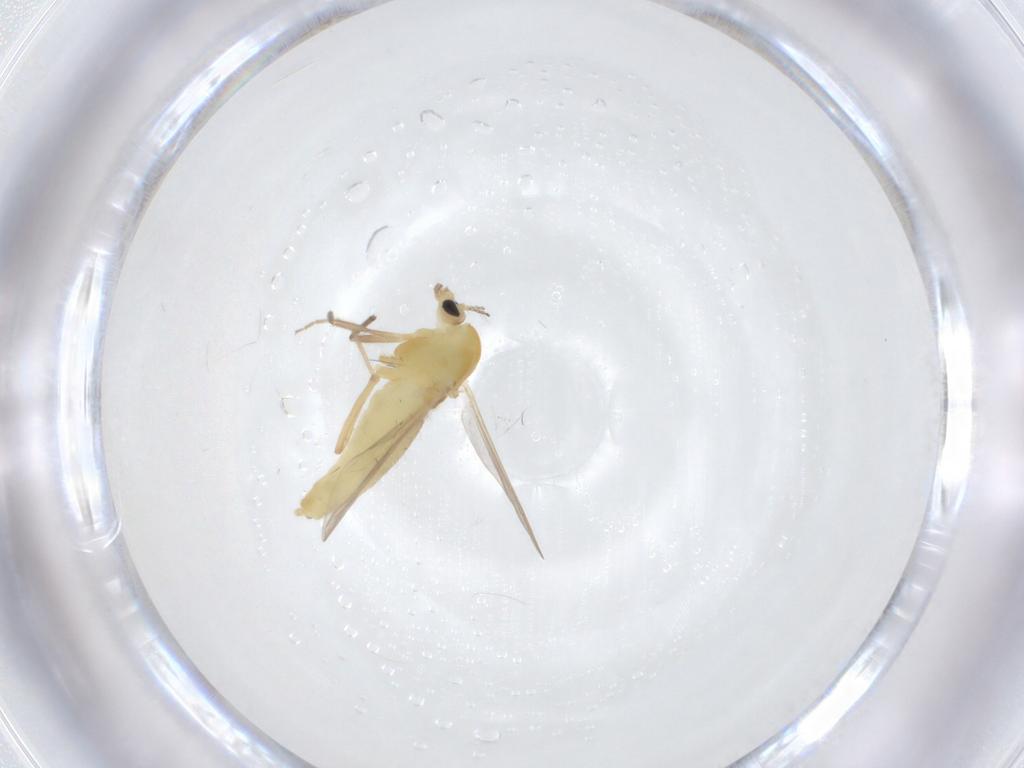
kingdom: Animalia
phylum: Arthropoda
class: Insecta
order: Diptera
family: Chironomidae
